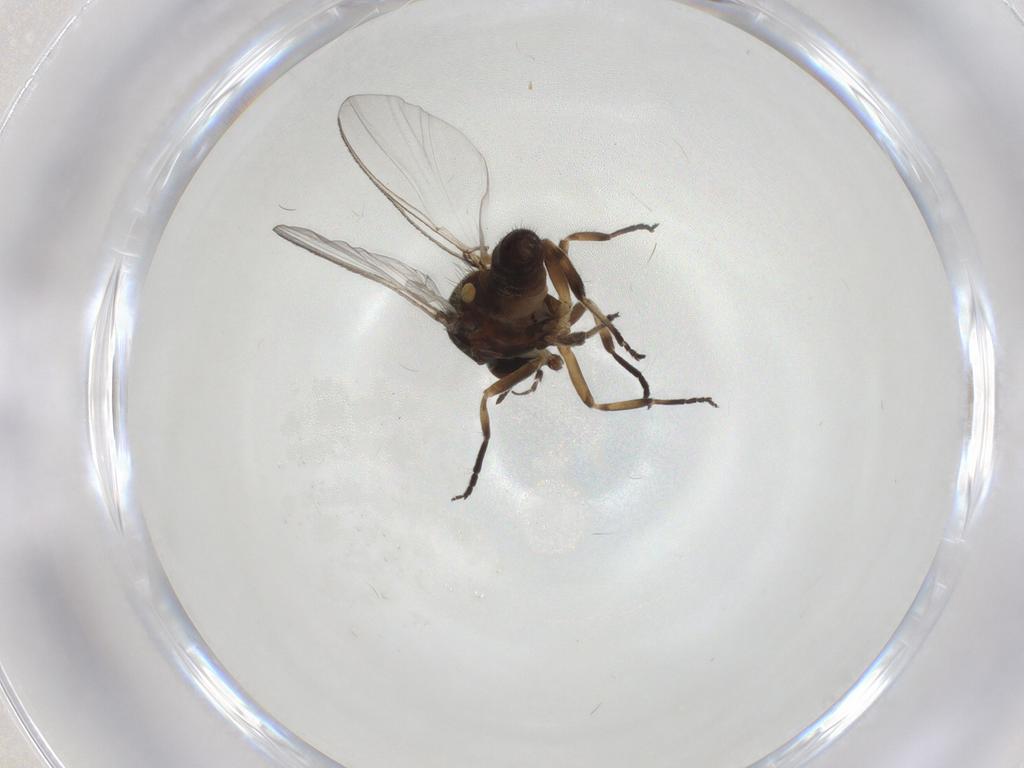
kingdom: Animalia
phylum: Arthropoda
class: Insecta
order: Diptera
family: Chironomidae
